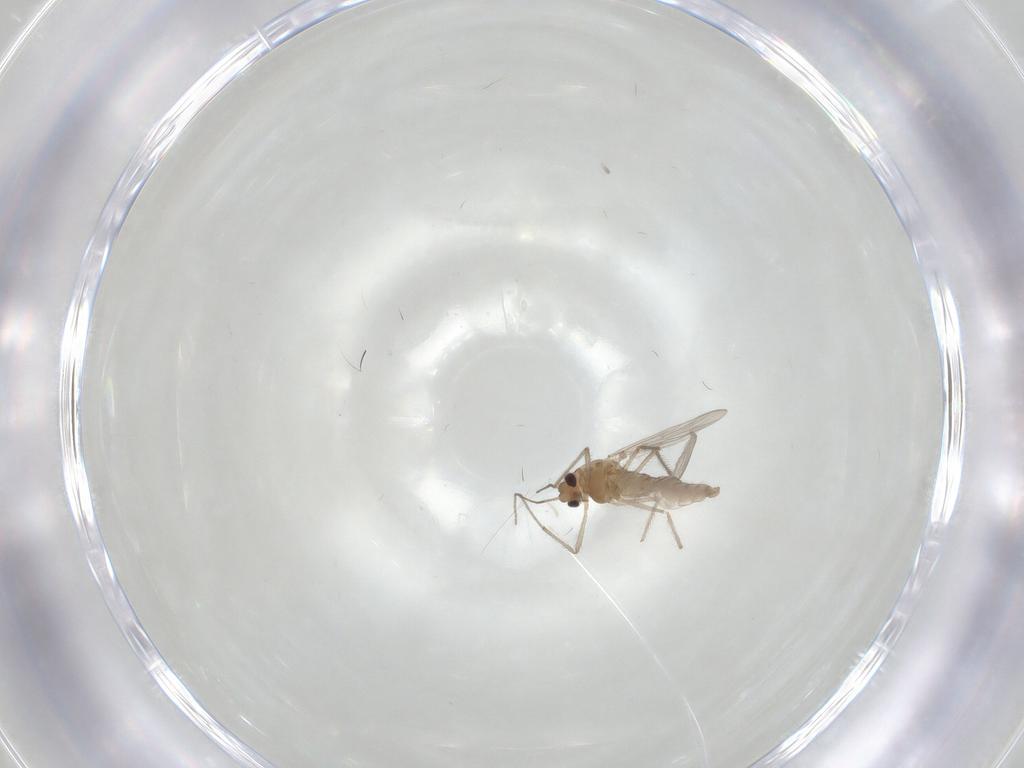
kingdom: Animalia
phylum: Arthropoda
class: Insecta
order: Diptera
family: Chironomidae
